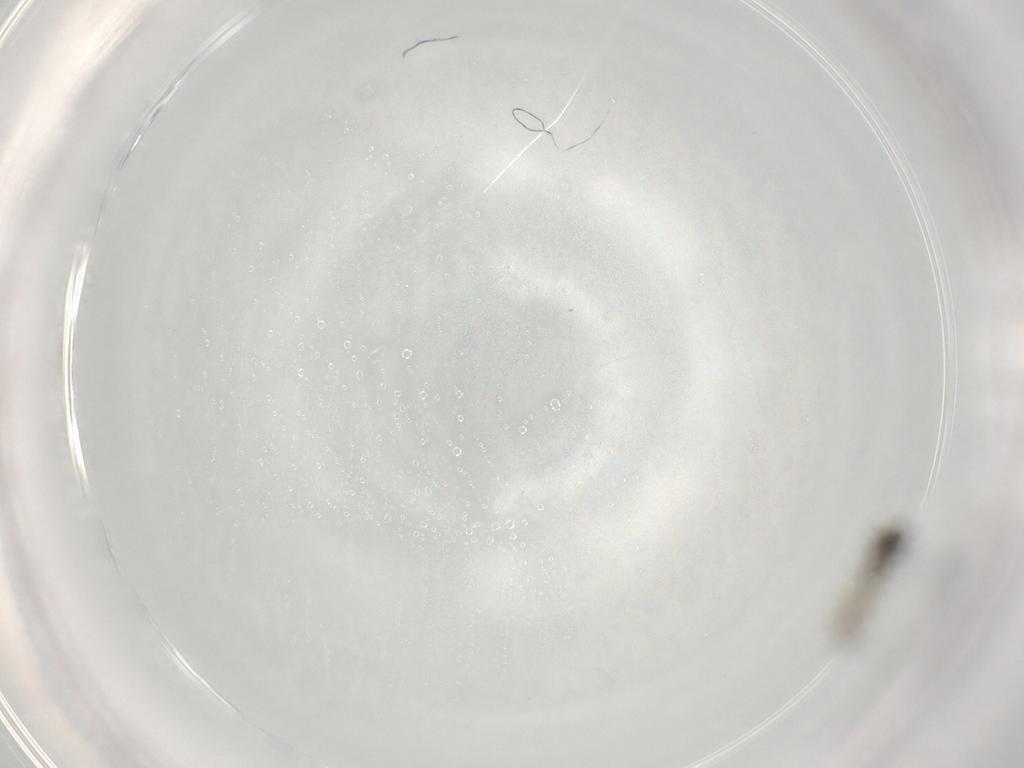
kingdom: Animalia
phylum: Arthropoda
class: Insecta
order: Diptera
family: Psychodidae
